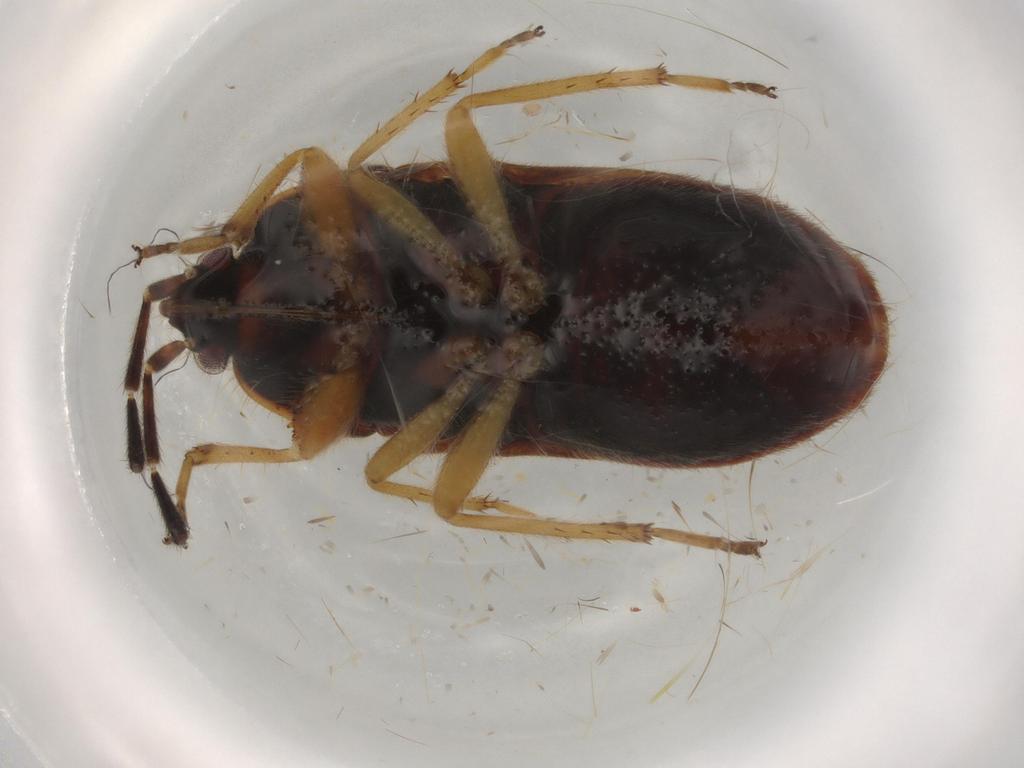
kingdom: Animalia
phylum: Arthropoda
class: Insecta
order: Hemiptera
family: Rhyparochromidae
